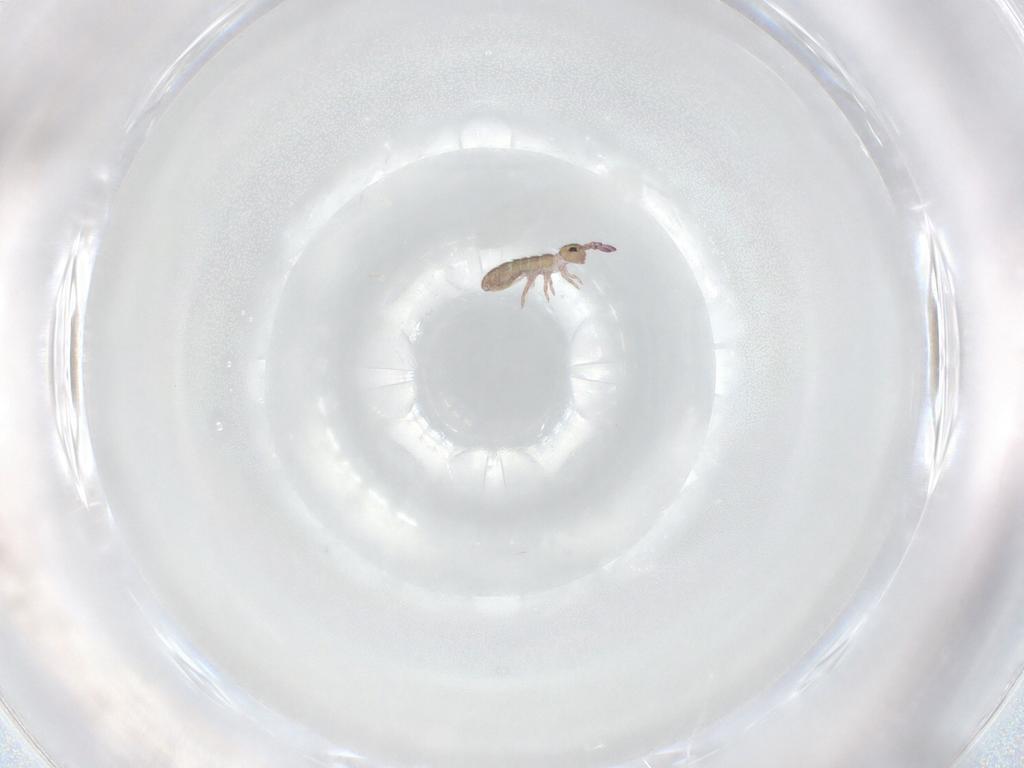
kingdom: Animalia
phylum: Arthropoda
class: Collembola
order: Entomobryomorpha
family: Isotomidae
